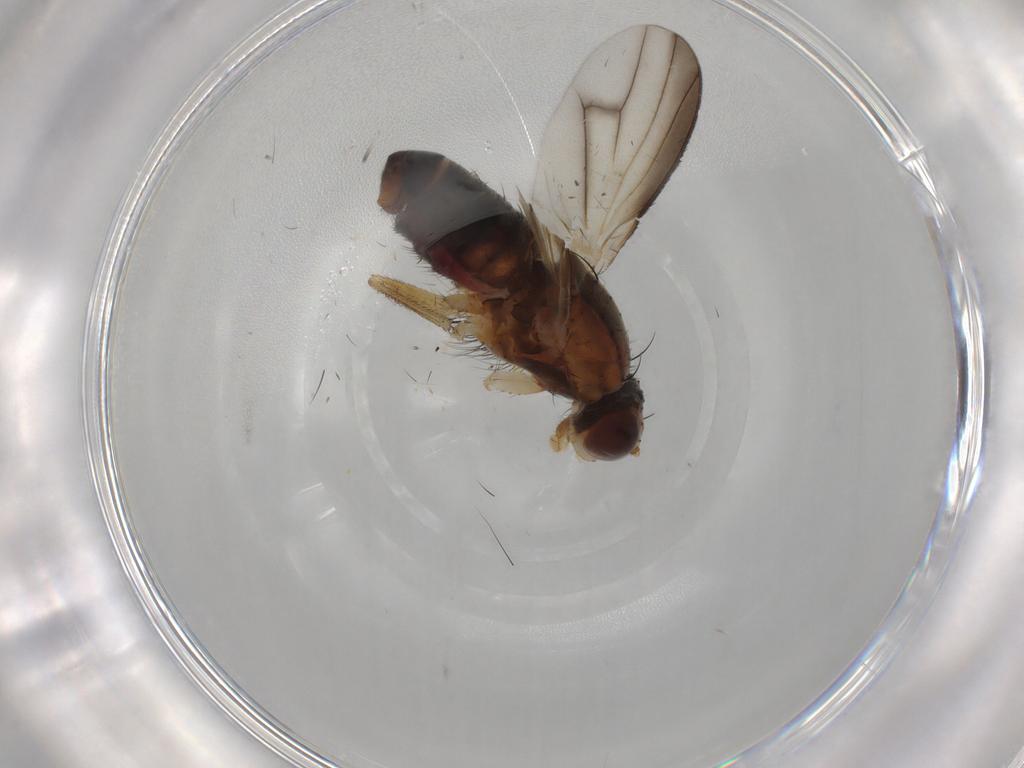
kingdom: Animalia
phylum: Arthropoda
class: Insecta
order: Diptera
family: Heleomyzidae
